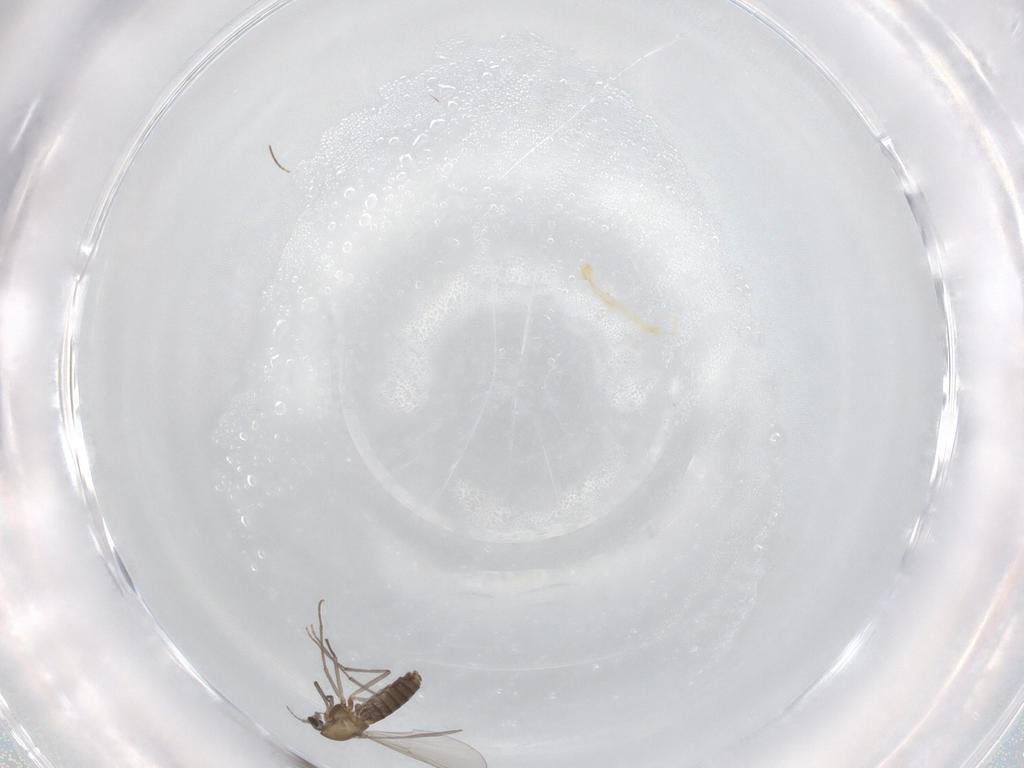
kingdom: Animalia
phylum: Arthropoda
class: Insecta
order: Diptera
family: Chironomidae
